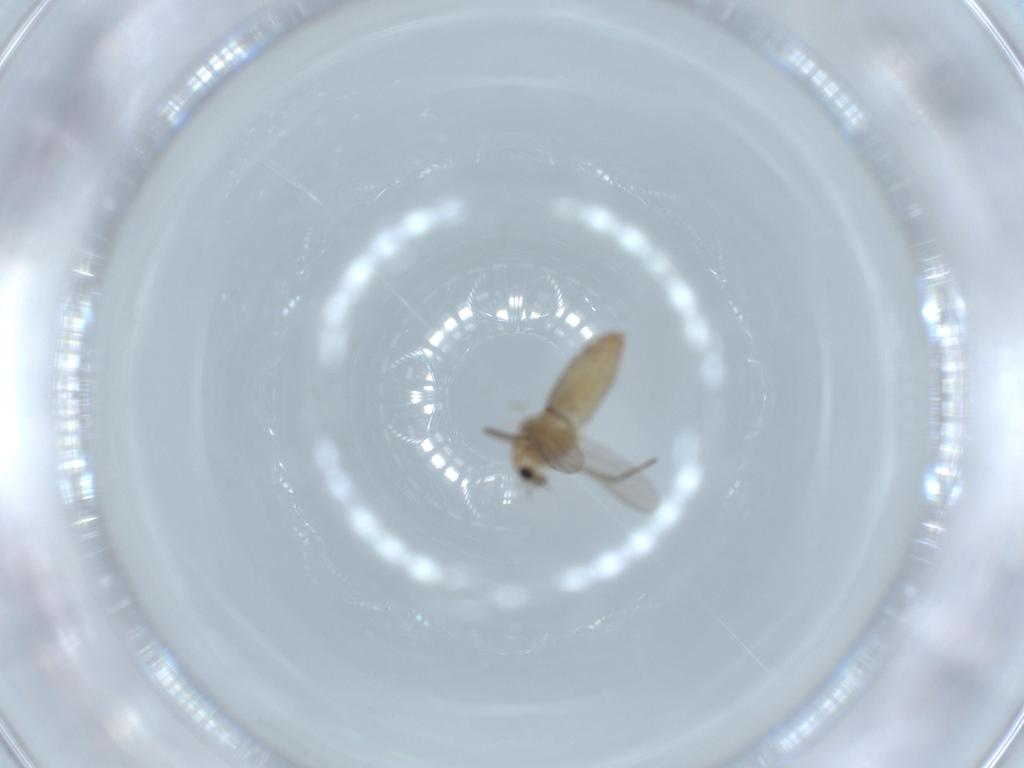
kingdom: Animalia
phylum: Arthropoda
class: Insecta
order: Diptera
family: Chironomidae
